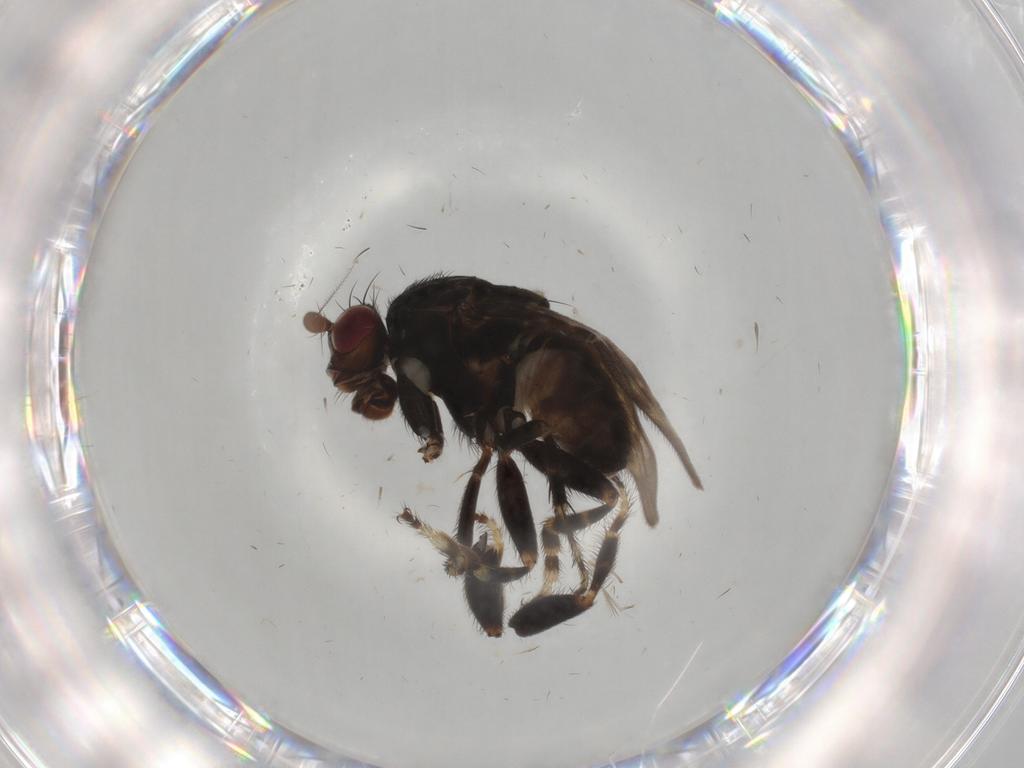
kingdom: Animalia
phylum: Arthropoda
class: Insecta
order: Diptera
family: Sphaeroceridae
